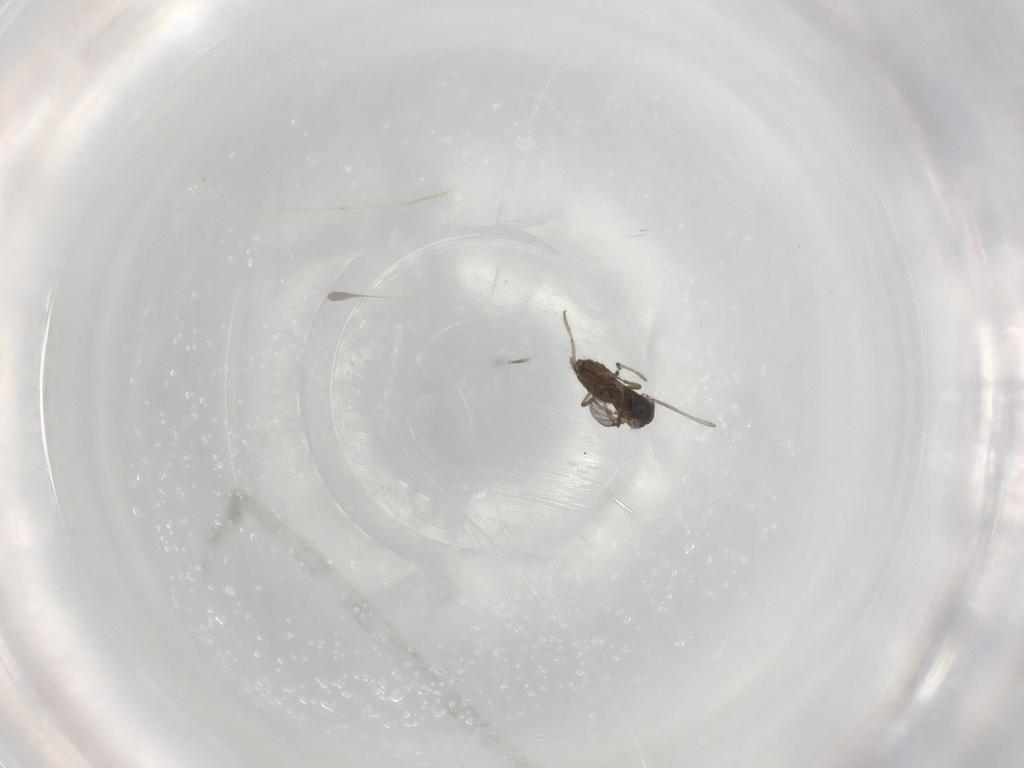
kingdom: Animalia
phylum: Arthropoda
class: Insecta
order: Diptera
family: Ceratopogonidae
